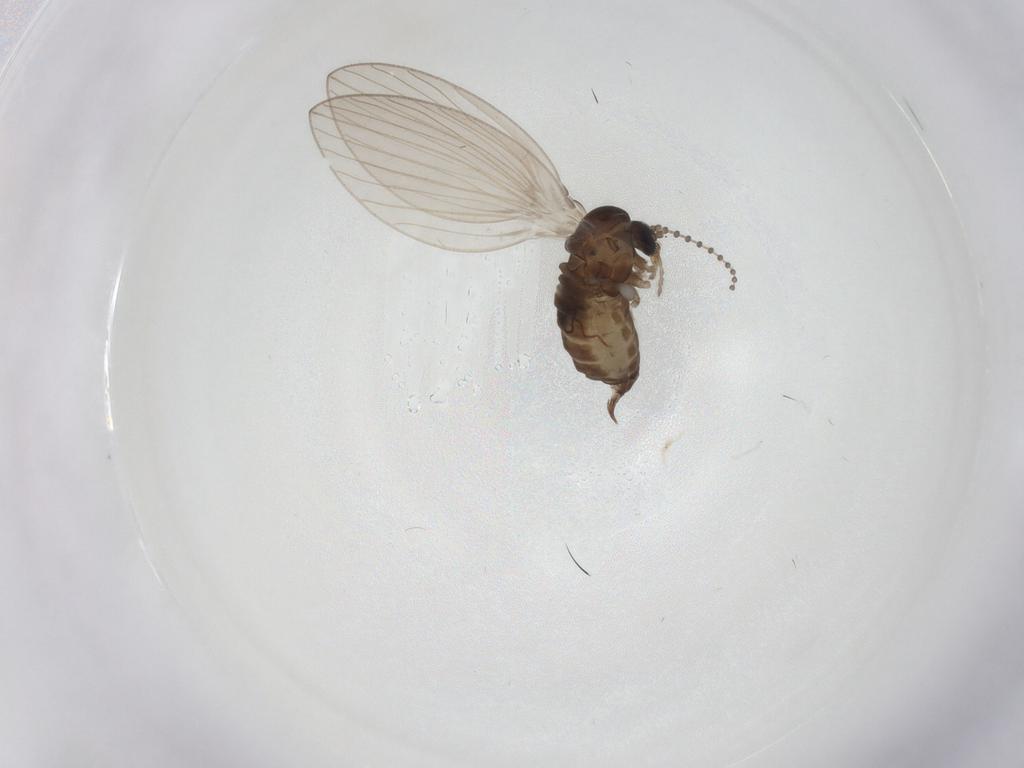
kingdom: Animalia
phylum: Arthropoda
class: Insecta
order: Diptera
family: Psychodidae
